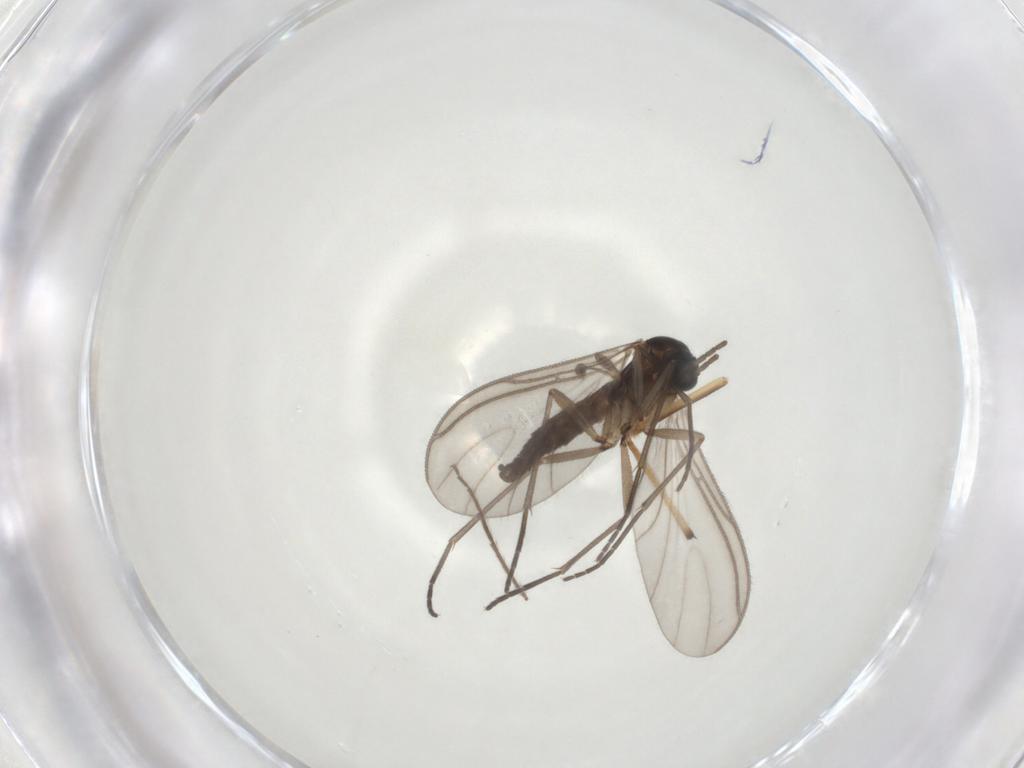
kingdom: Animalia
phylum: Arthropoda
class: Insecta
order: Diptera
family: Sciaridae
